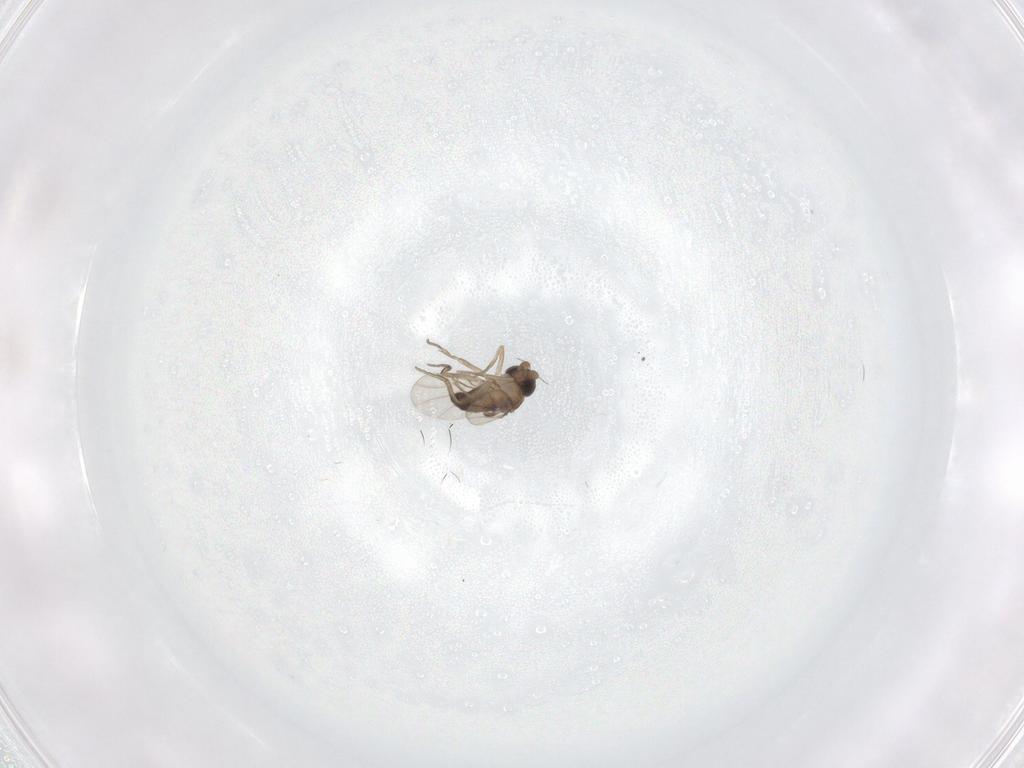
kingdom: Animalia
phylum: Arthropoda
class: Insecta
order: Diptera
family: Phoridae
